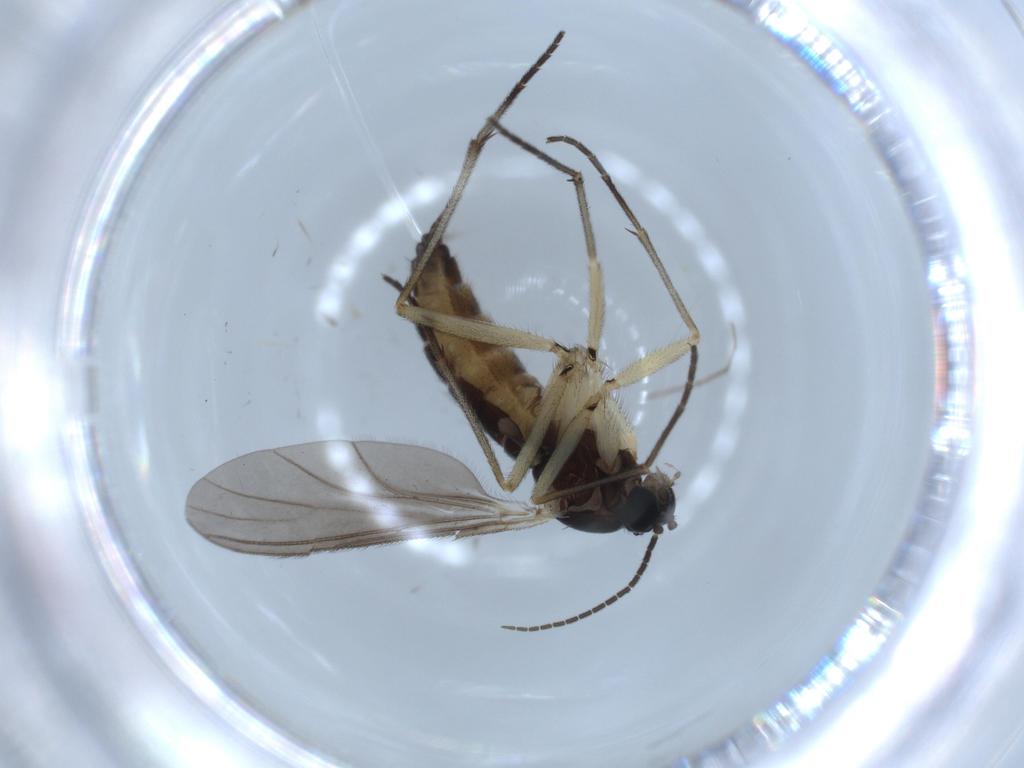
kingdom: Animalia
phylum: Arthropoda
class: Insecta
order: Diptera
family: Sciaridae
